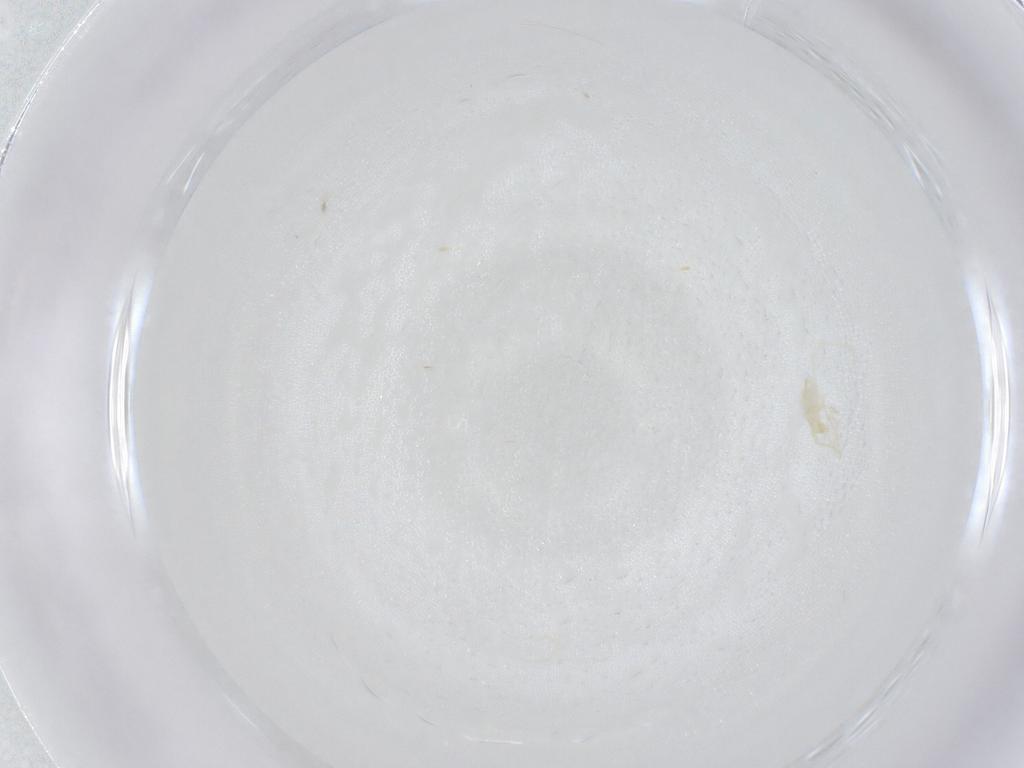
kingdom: Animalia
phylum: Arthropoda
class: Arachnida
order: Trombidiformes
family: Erythraeidae
